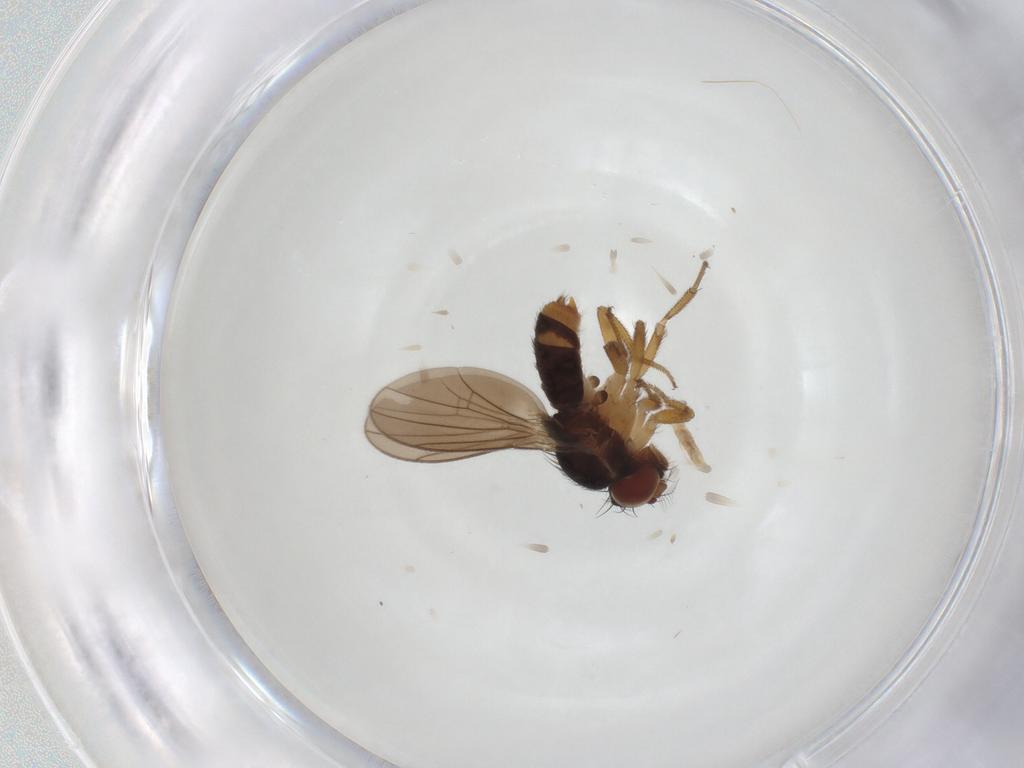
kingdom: Animalia
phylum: Arthropoda
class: Insecta
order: Diptera
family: Drosophilidae
